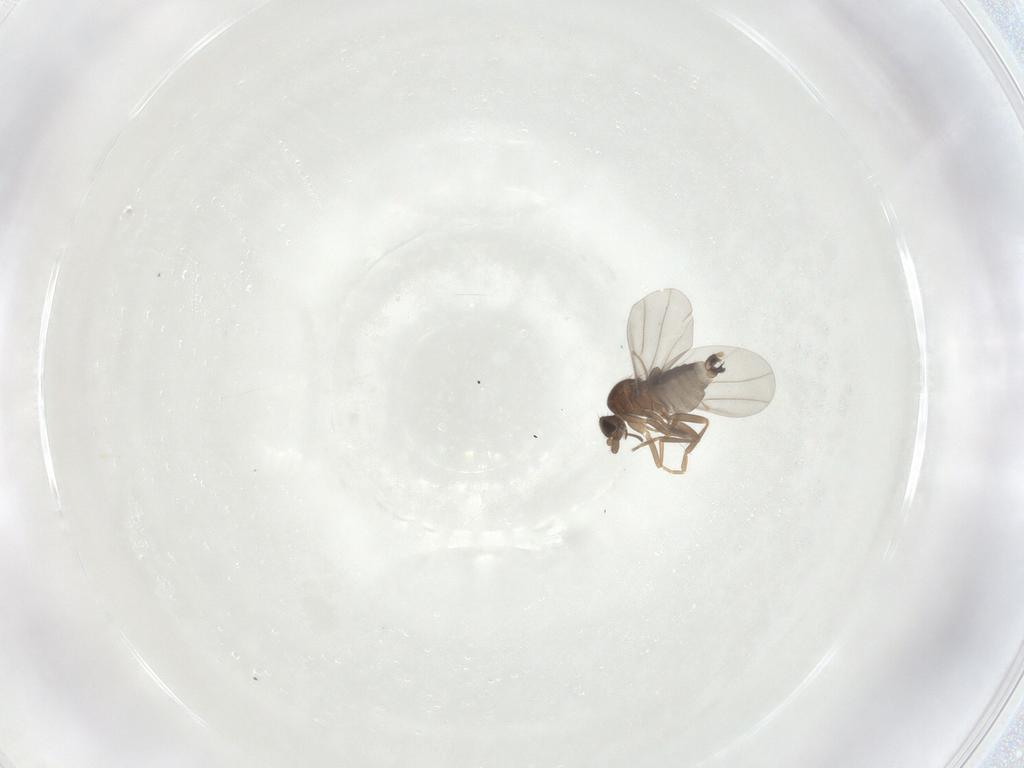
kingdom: Animalia
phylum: Arthropoda
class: Insecta
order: Diptera
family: Phoridae
